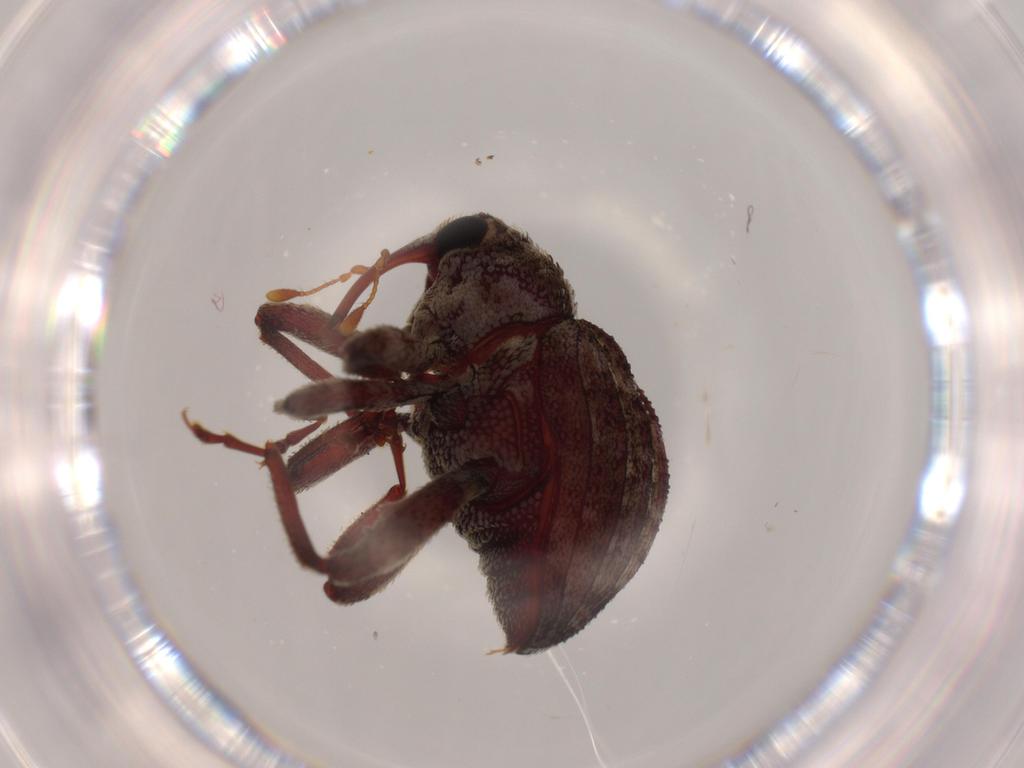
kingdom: Animalia
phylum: Arthropoda
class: Insecta
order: Coleoptera
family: Curculionidae
